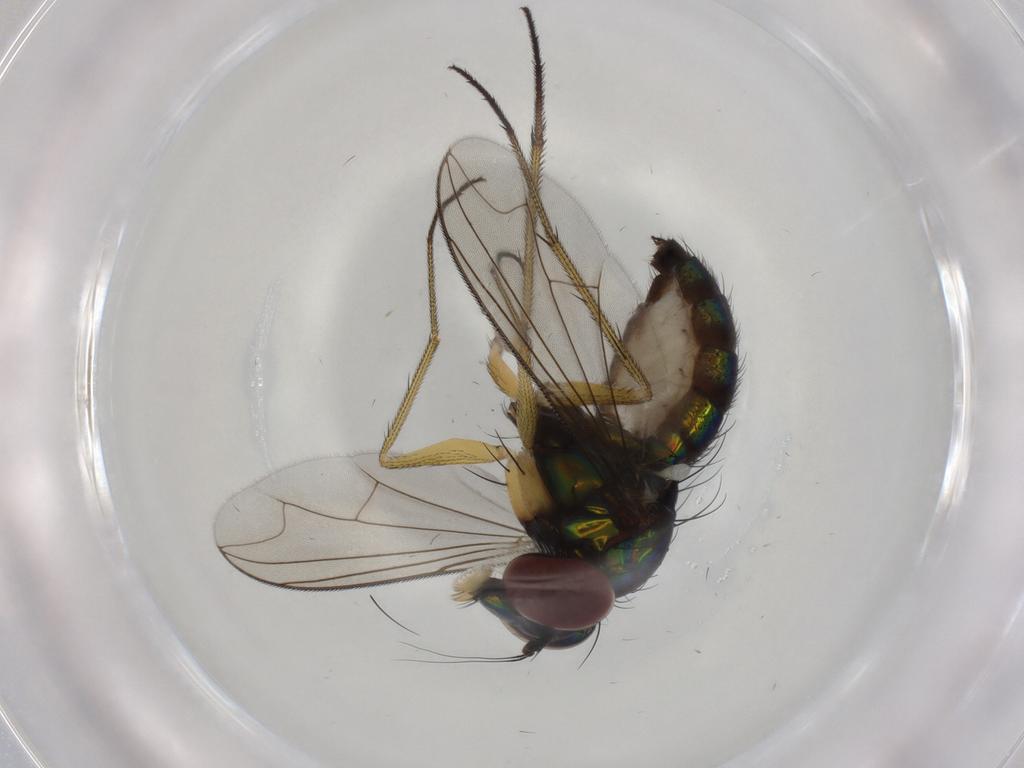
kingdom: Animalia
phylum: Arthropoda
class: Insecta
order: Diptera
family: Dolichopodidae
